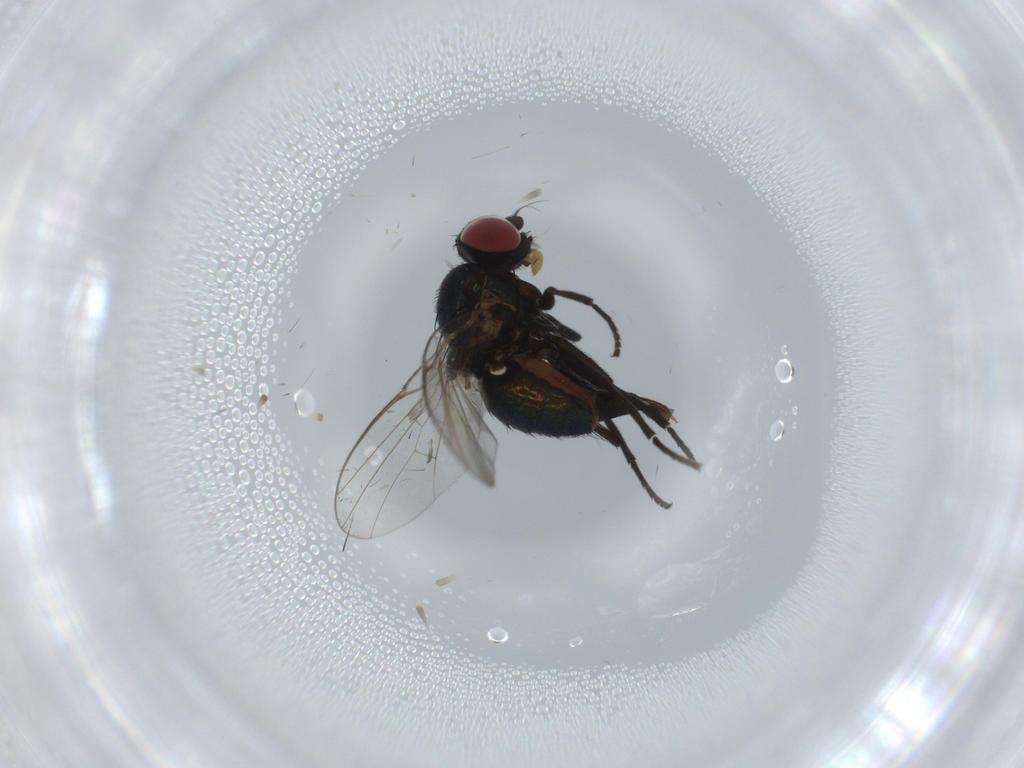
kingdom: Animalia
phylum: Arthropoda
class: Insecta
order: Diptera
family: Agromyzidae
